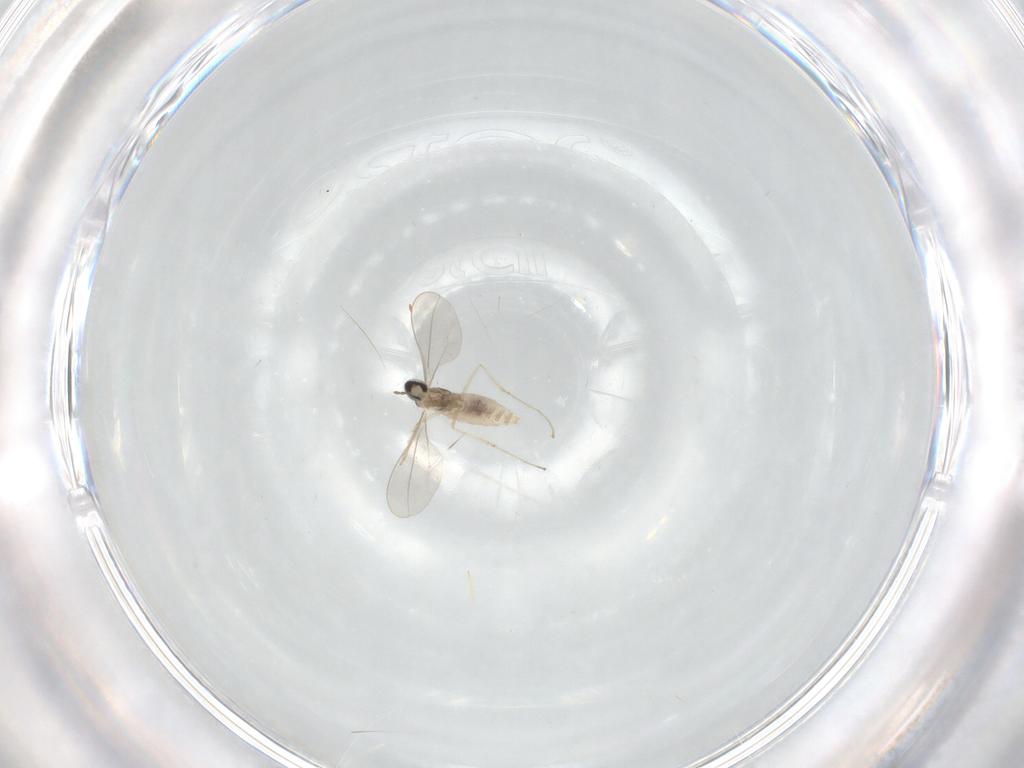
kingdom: Animalia
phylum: Arthropoda
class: Insecta
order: Diptera
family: Cecidomyiidae
